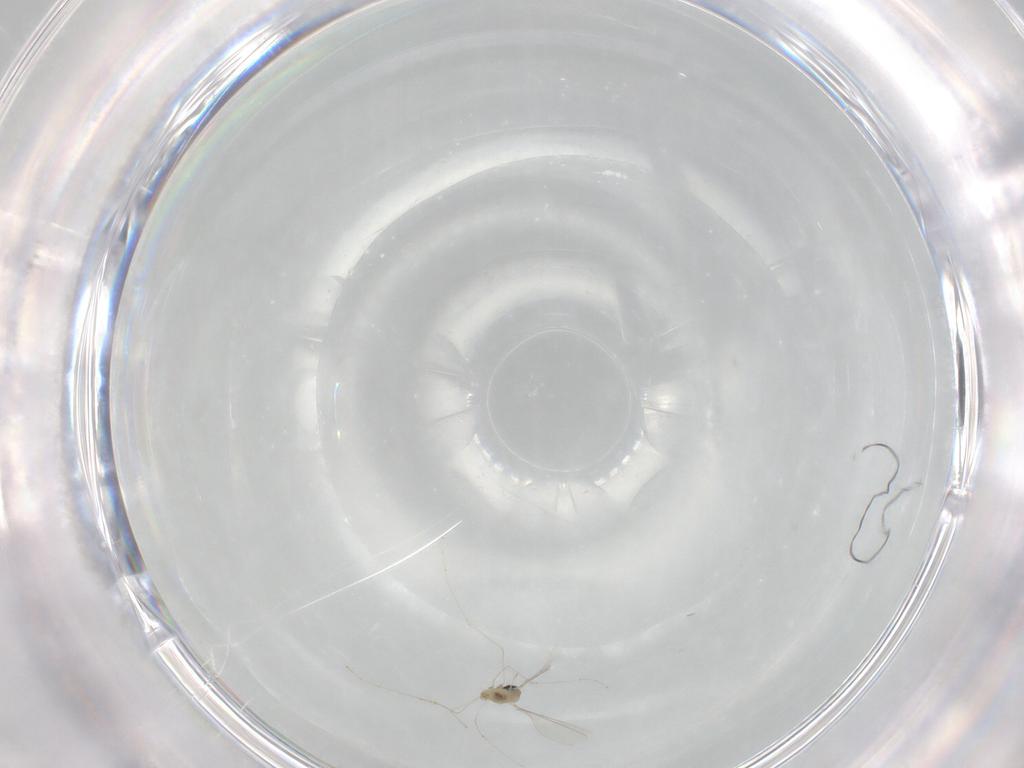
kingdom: Animalia
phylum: Arthropoda
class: Insecta
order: Diptera
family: Cecidomyiidae
